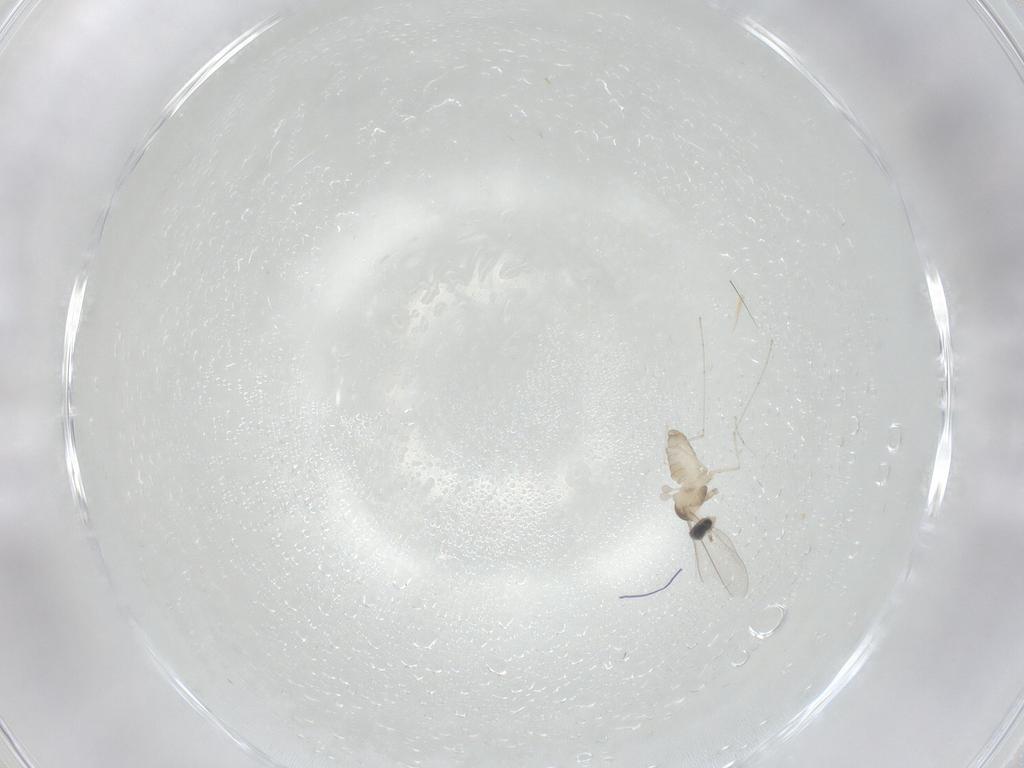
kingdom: Animalia
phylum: Arthropoda
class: Insecta
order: Diptera
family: Cecidomyiidae
